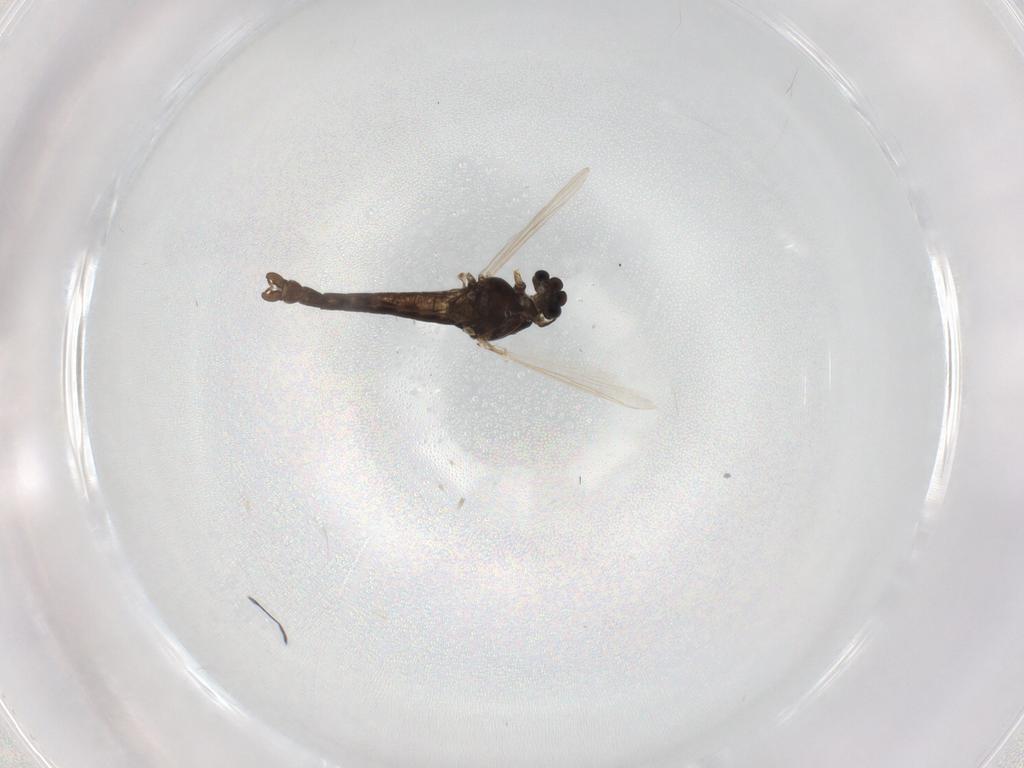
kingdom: Animalia
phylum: Arthropoda
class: Insecta
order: Diptera
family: Chironomidae
